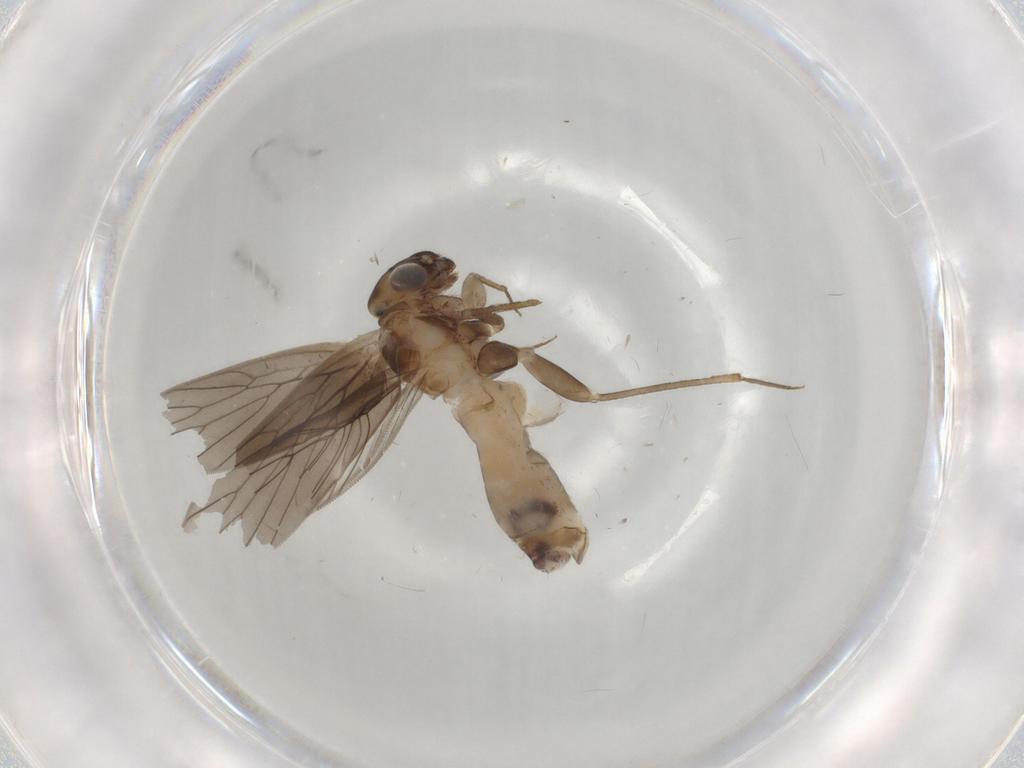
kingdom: Animalia
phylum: Arthropoda
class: Insecta
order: Psocodea
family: Lepidopsocidae
